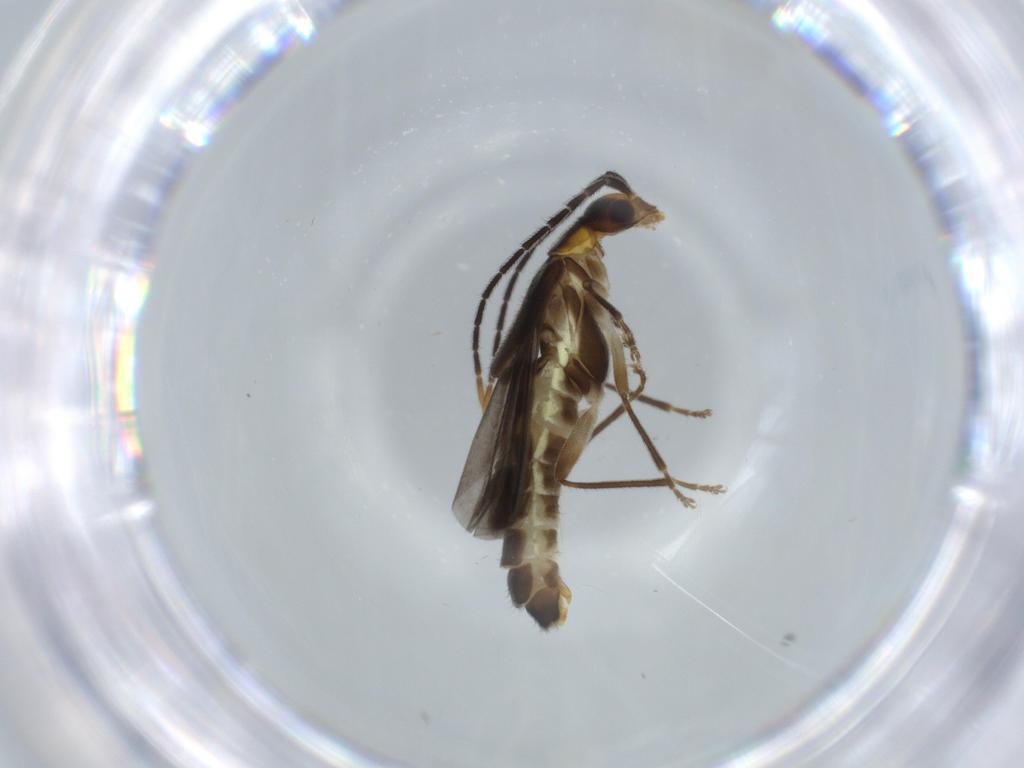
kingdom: Animalia
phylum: Arthropoda
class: Insecta
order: Coleoptera
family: Cantharidae
